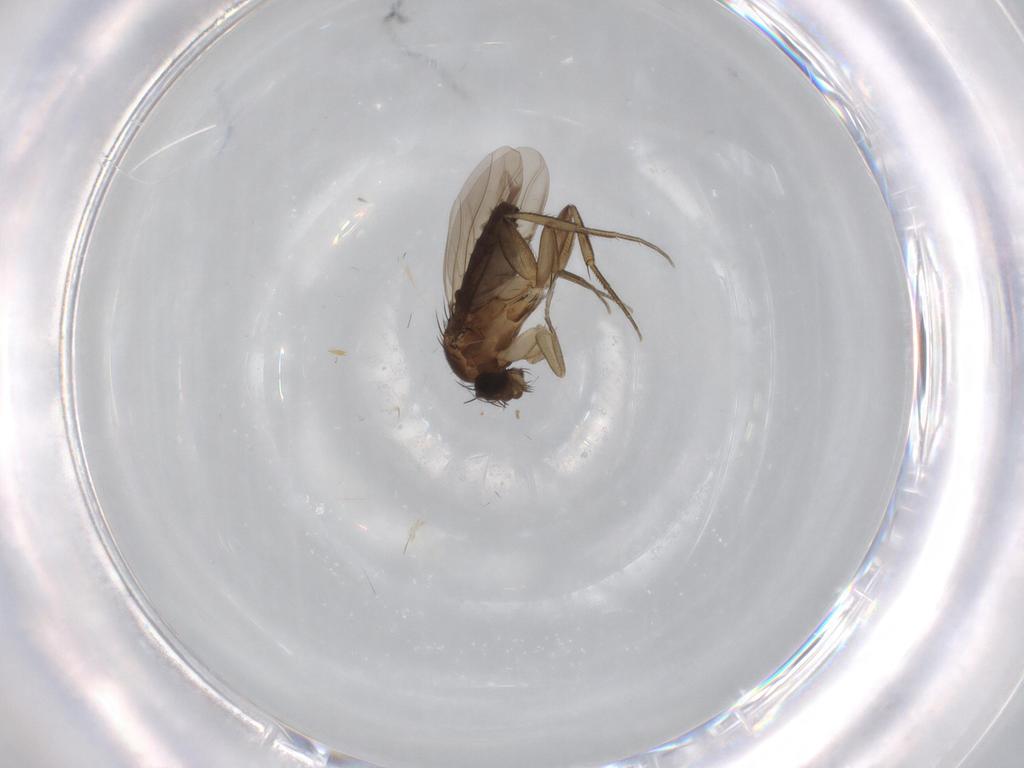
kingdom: Animalia
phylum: Arthropoda
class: Insecta
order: Diptera
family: Phoridae
